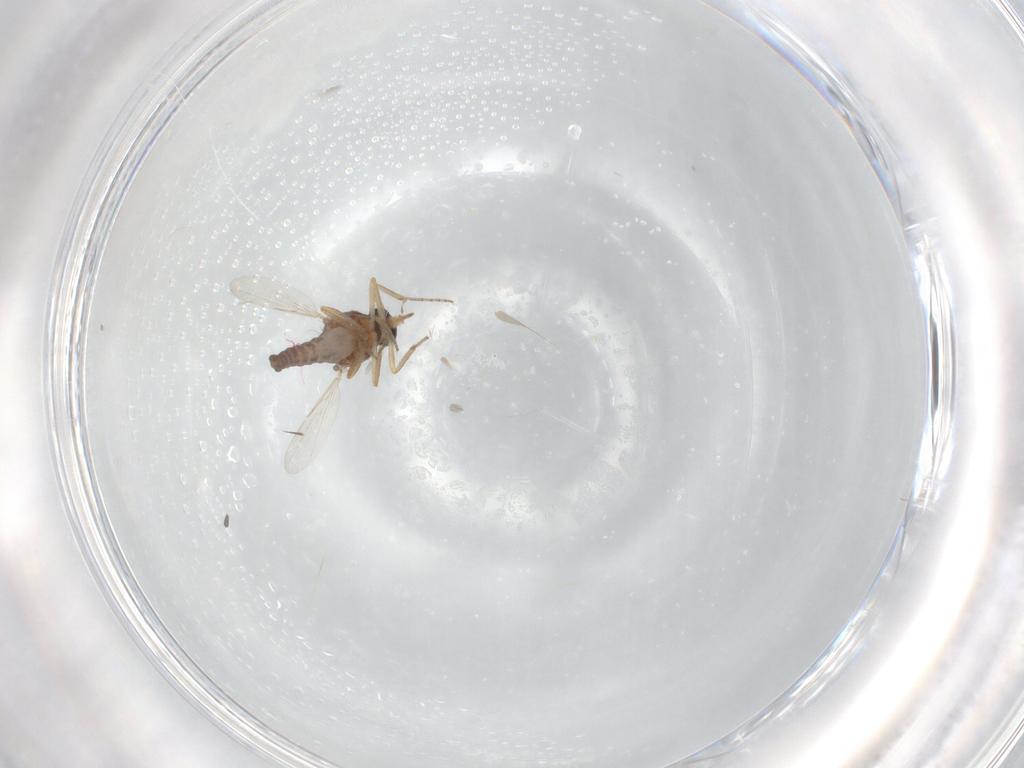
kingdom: Animalia
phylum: Arthropoda
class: Insecta
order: Diptera
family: Ceratopogonidae
